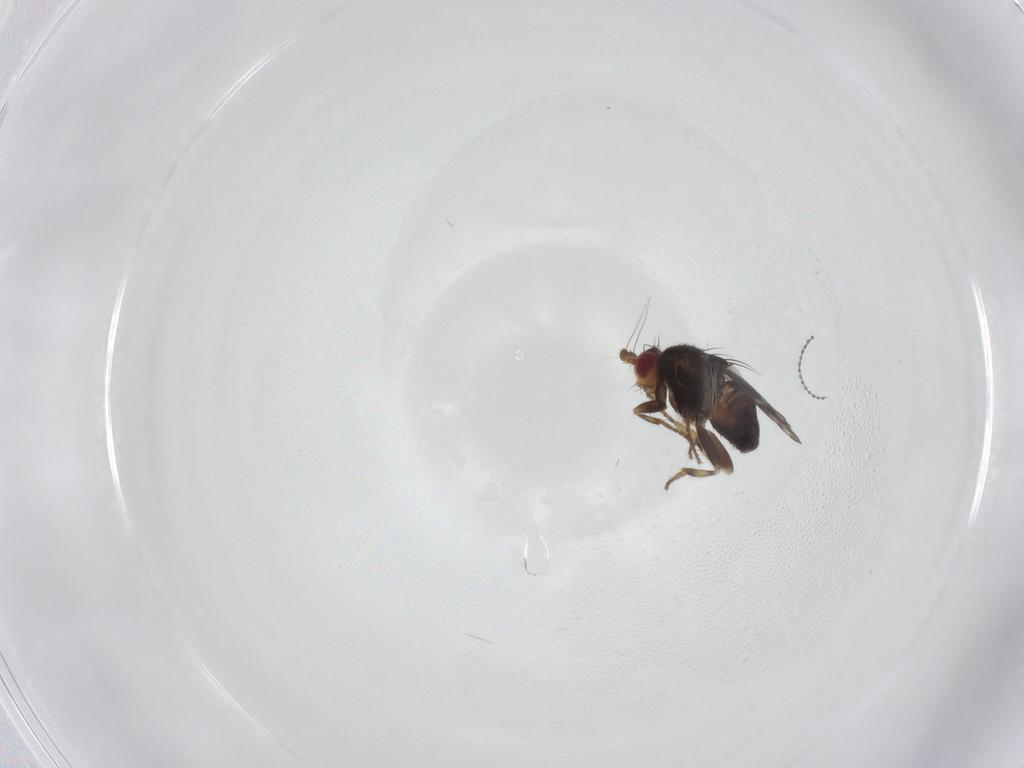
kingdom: Animalia
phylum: Arthropoda
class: Insecta
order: Diptera
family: Sphaeroceridae
